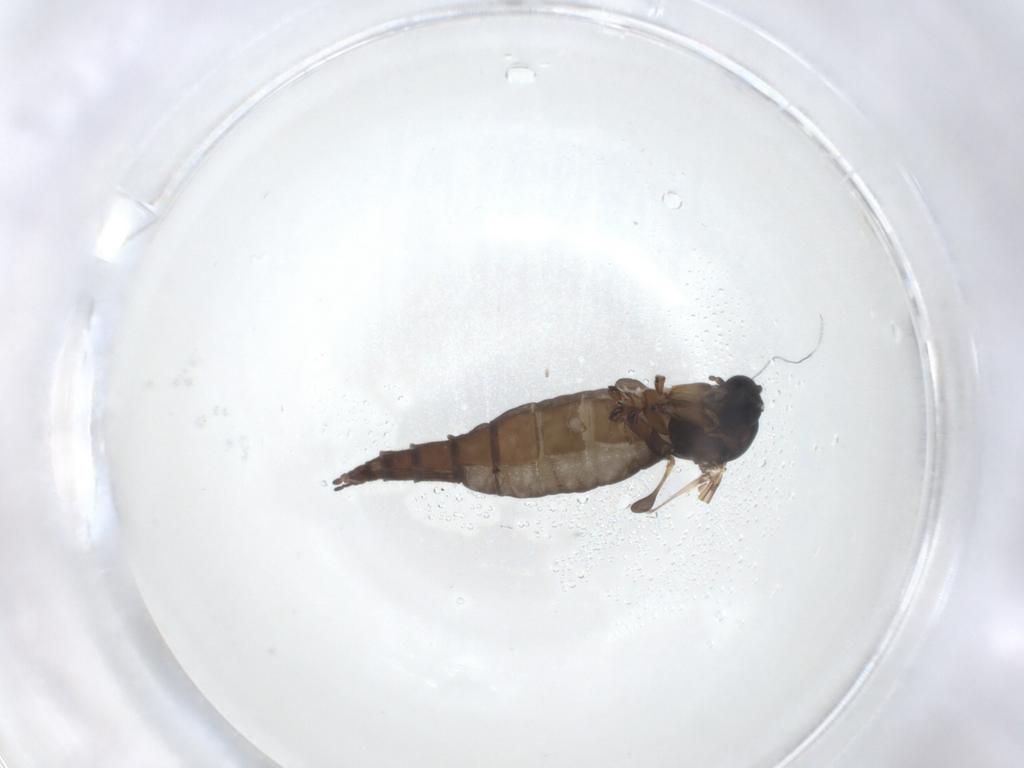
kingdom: Animalia
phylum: Arthropoda
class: Insecta
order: Diptera
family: Sciaridae
